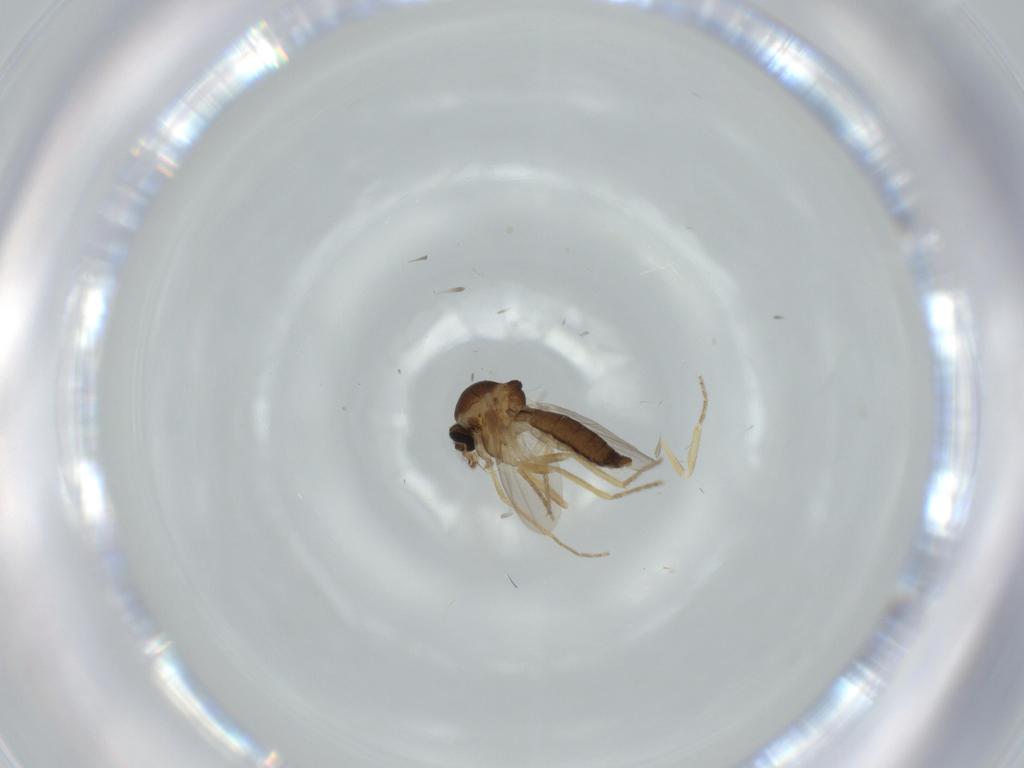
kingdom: Animalia
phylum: Arthropoda
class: Insecta
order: Diptera
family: Ceratopogonidae
